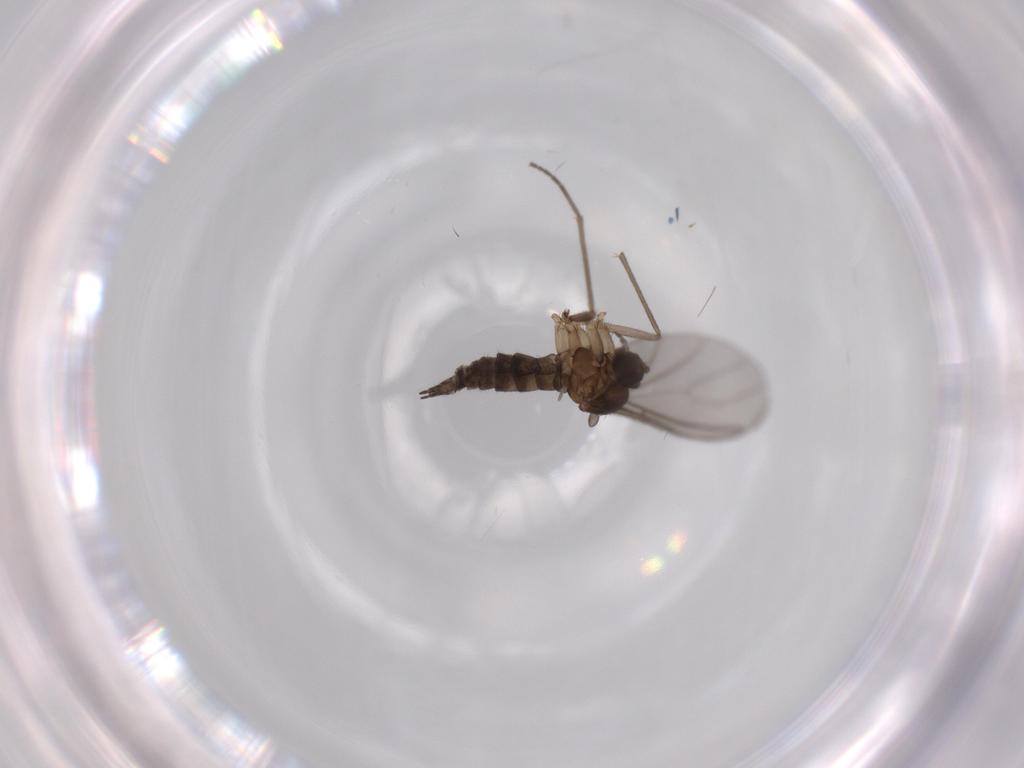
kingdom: Animalia
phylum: Arthropoda
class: Insecta
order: Diptera
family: Sciaridae
